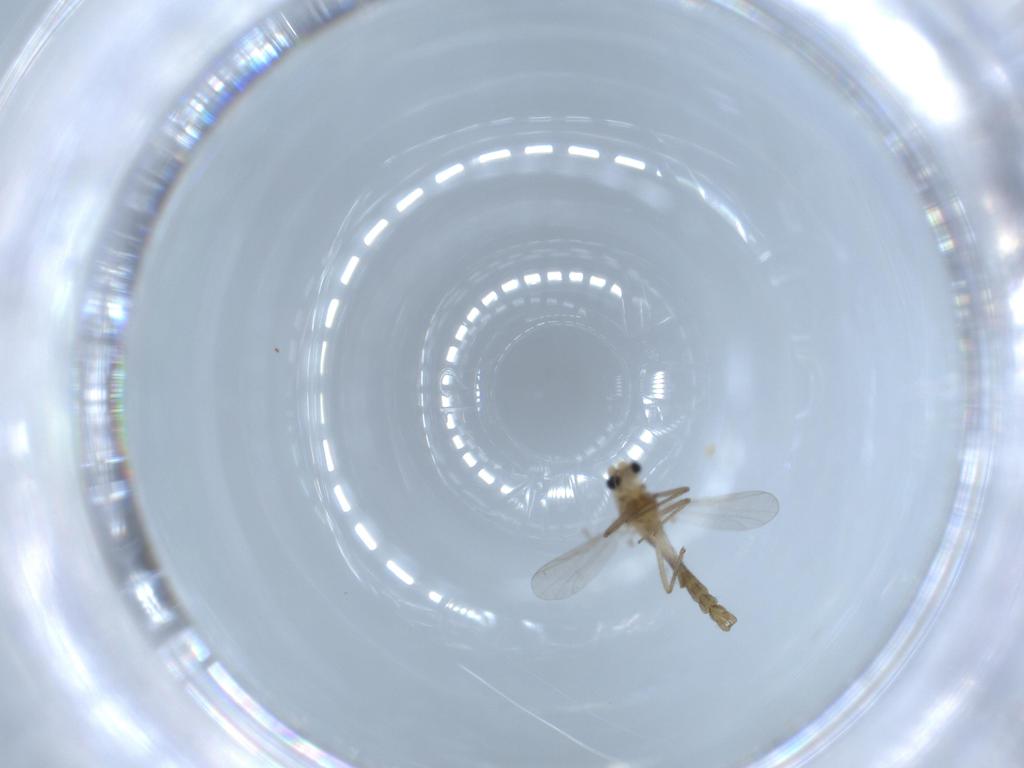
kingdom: Animalia
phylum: Arthropoda
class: Insecta
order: Diptera
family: Chironomidae
